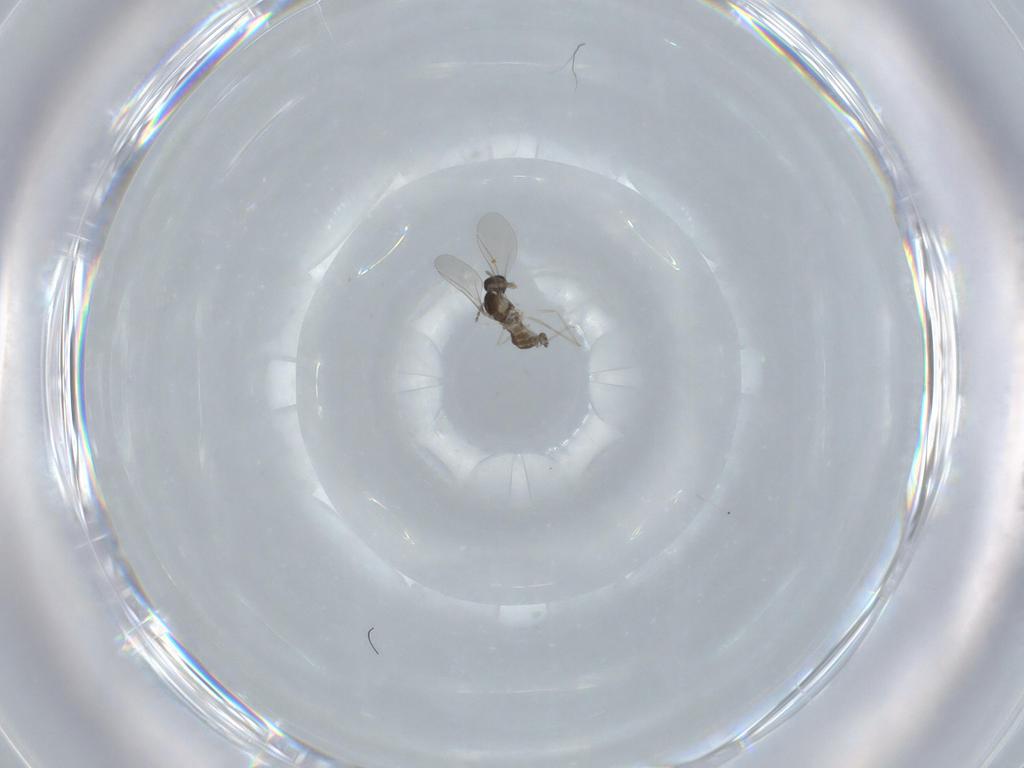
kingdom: Animalia
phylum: Arthropoda
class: Insecta
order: Diptera
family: Cecidomyiidae
